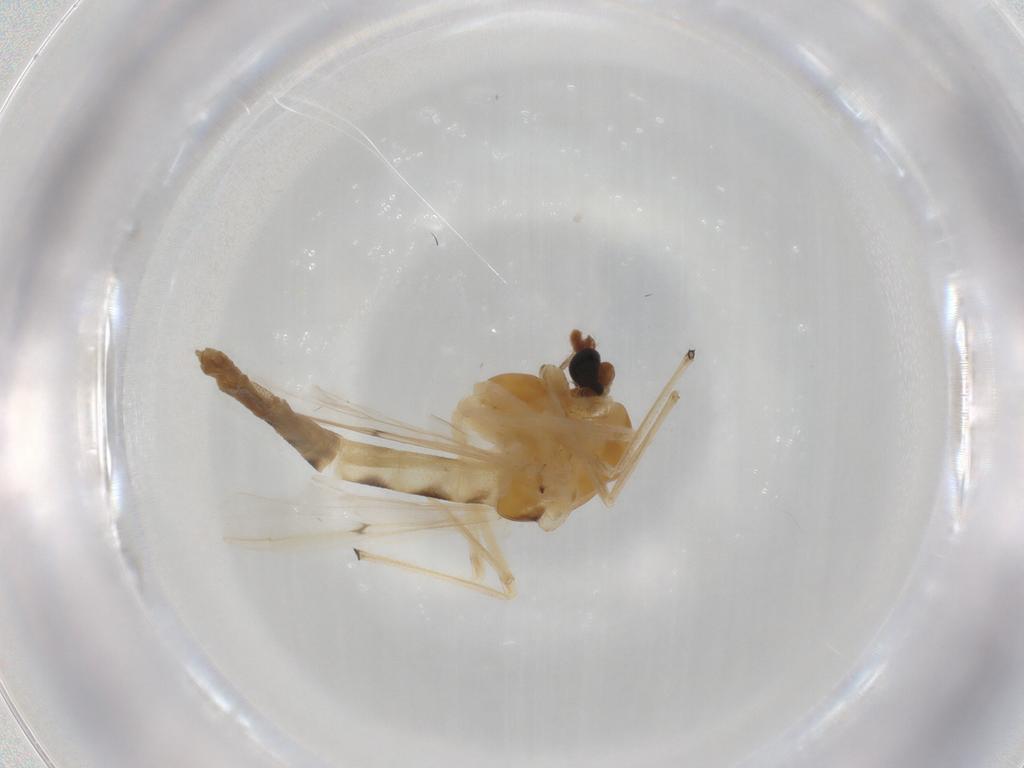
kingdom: Animalia
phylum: Arthropoda
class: Insecta
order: Diptera
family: Chironomidae
